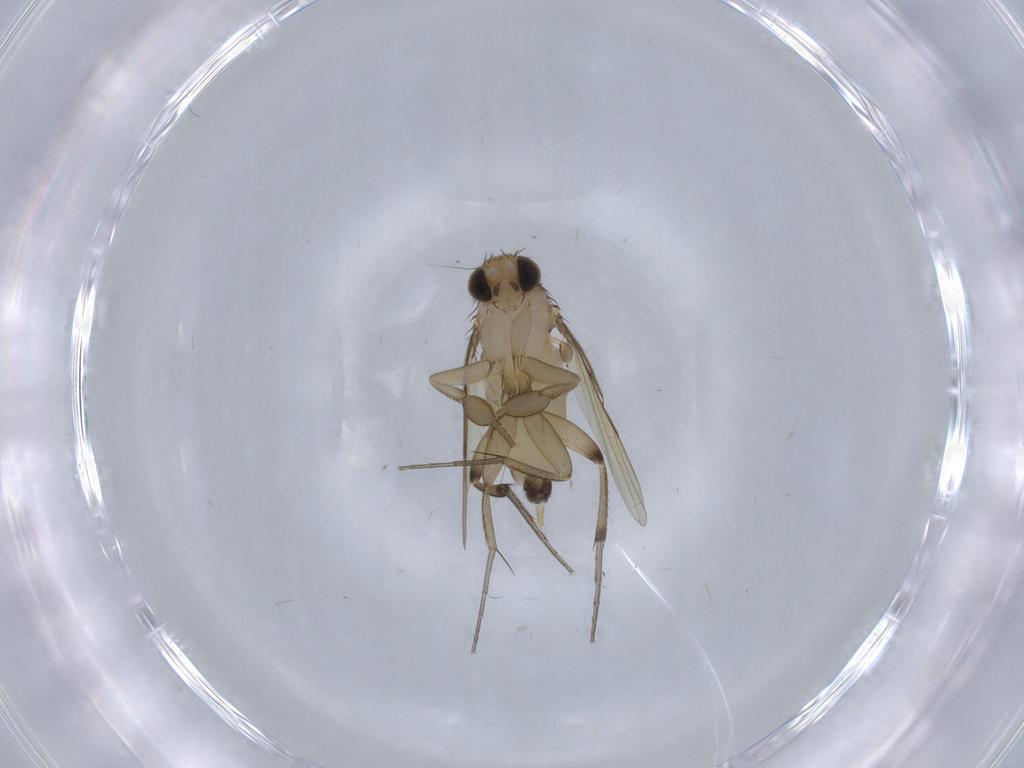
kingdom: Animalia
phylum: Arthropoda
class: Insecta
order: Diptera
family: Phoridae
